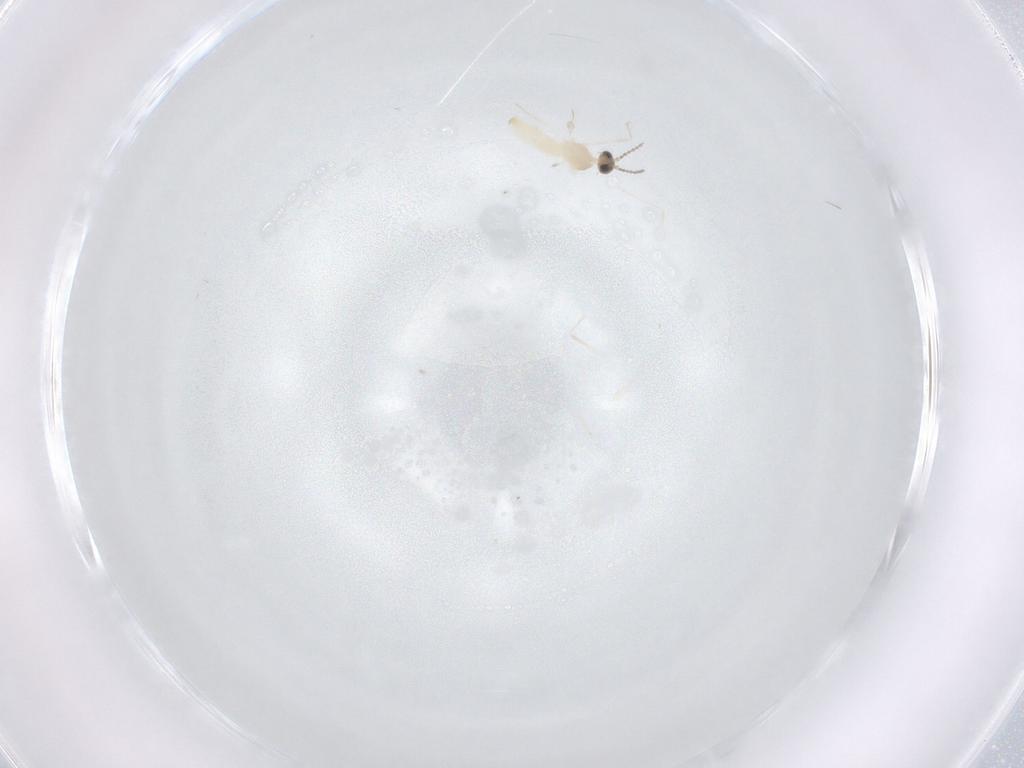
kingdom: Animalia
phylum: Arthropoda
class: Insecta
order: Diptera
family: Cecidomyiidae
